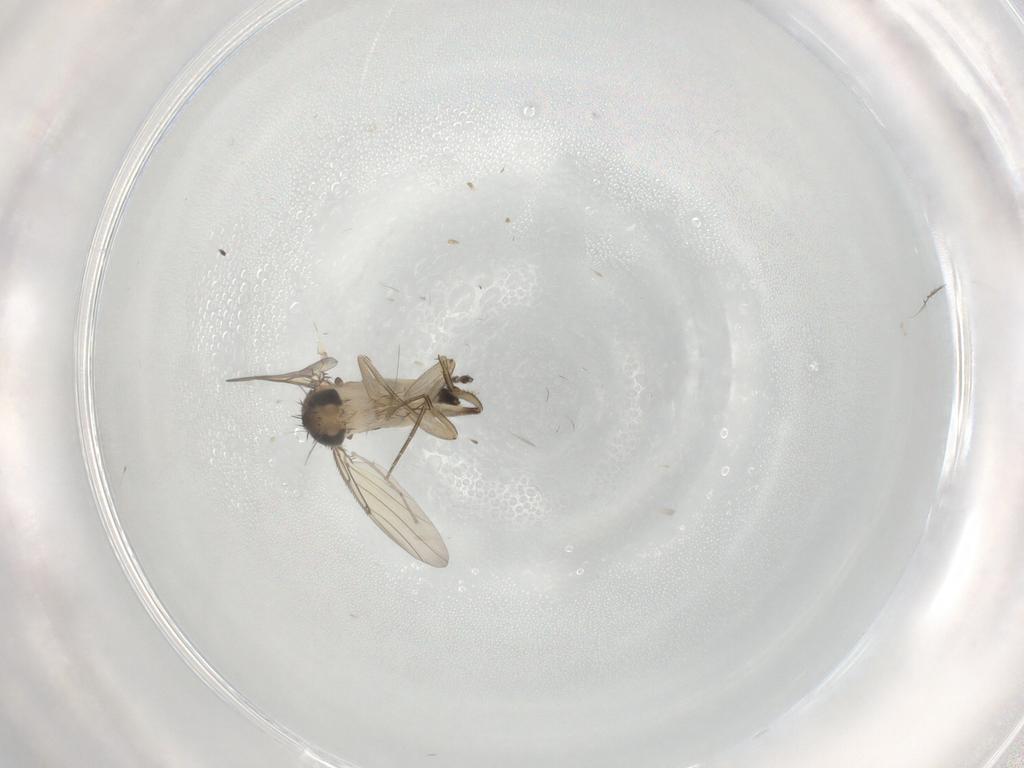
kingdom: Animalia
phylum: Arthropoda
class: Insecta
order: Diptera
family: Phoridae
